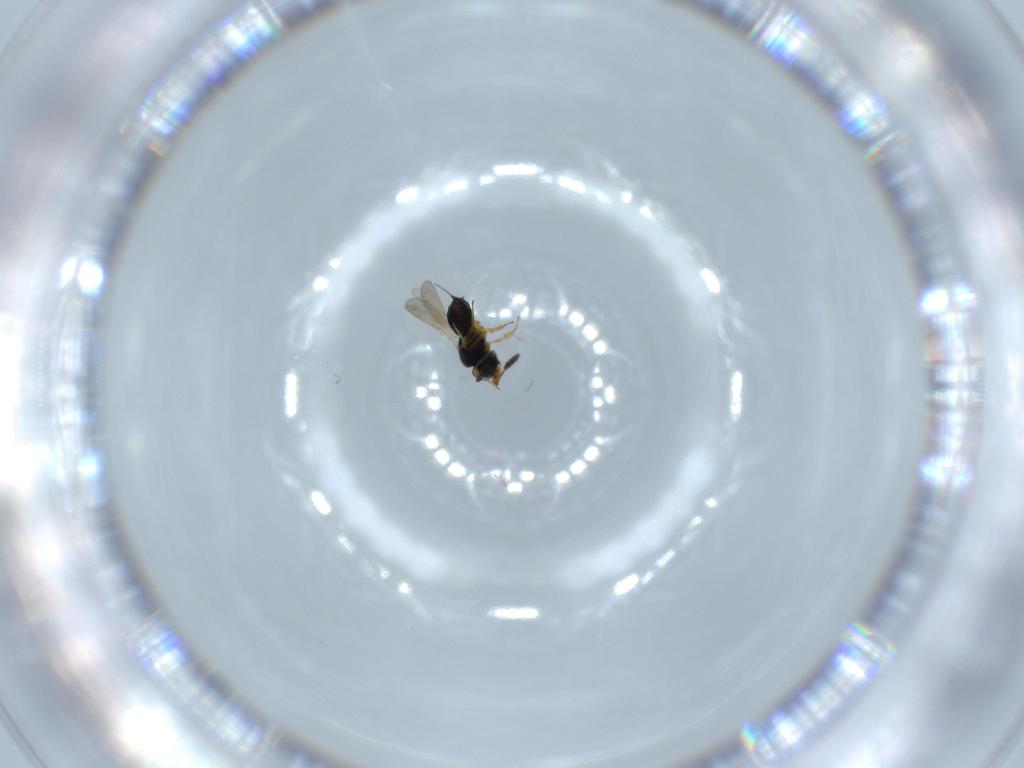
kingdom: Animalia
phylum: Arthropoda
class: Insecta
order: Hymenoptera
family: Scelionidae
